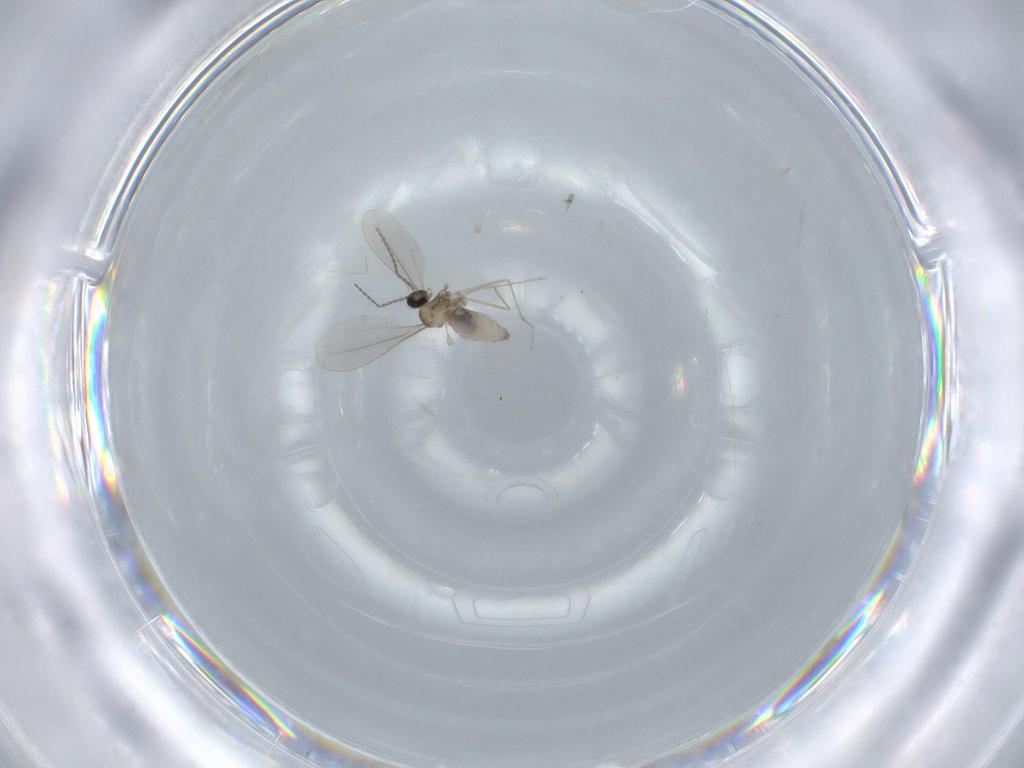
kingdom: Animalia
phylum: Arthropoda
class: Insecta
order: Diptera
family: Cecidomyiidae
